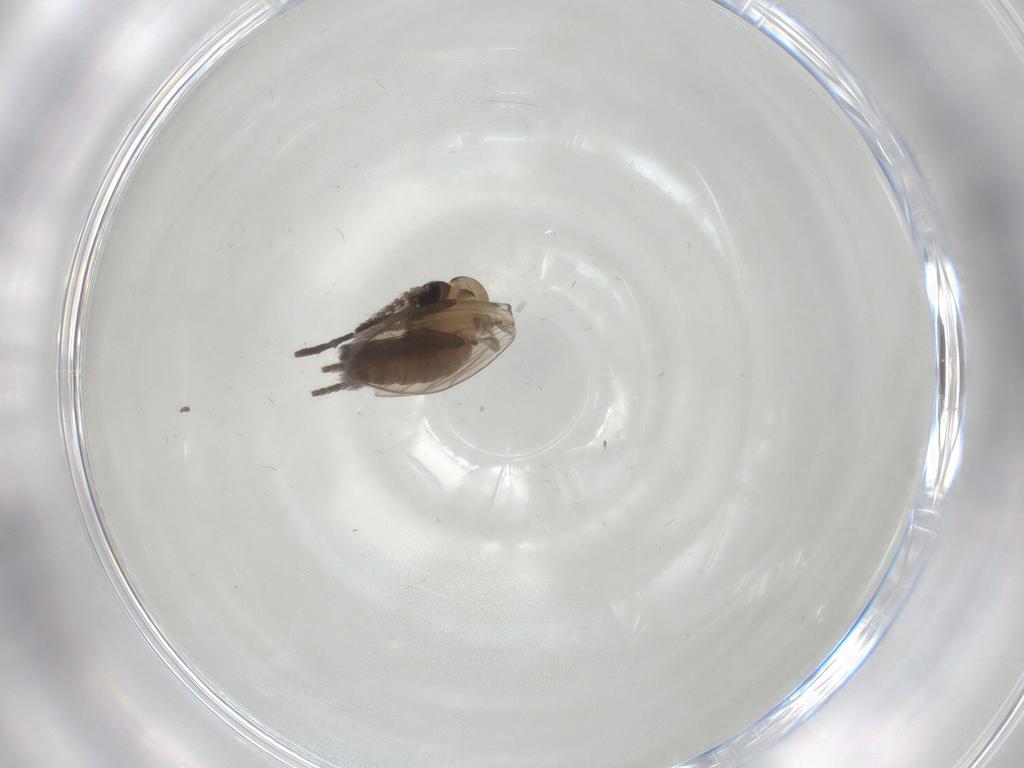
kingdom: Animalia
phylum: Arthropoda
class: Insecta
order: Diptera
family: Psychodidae
